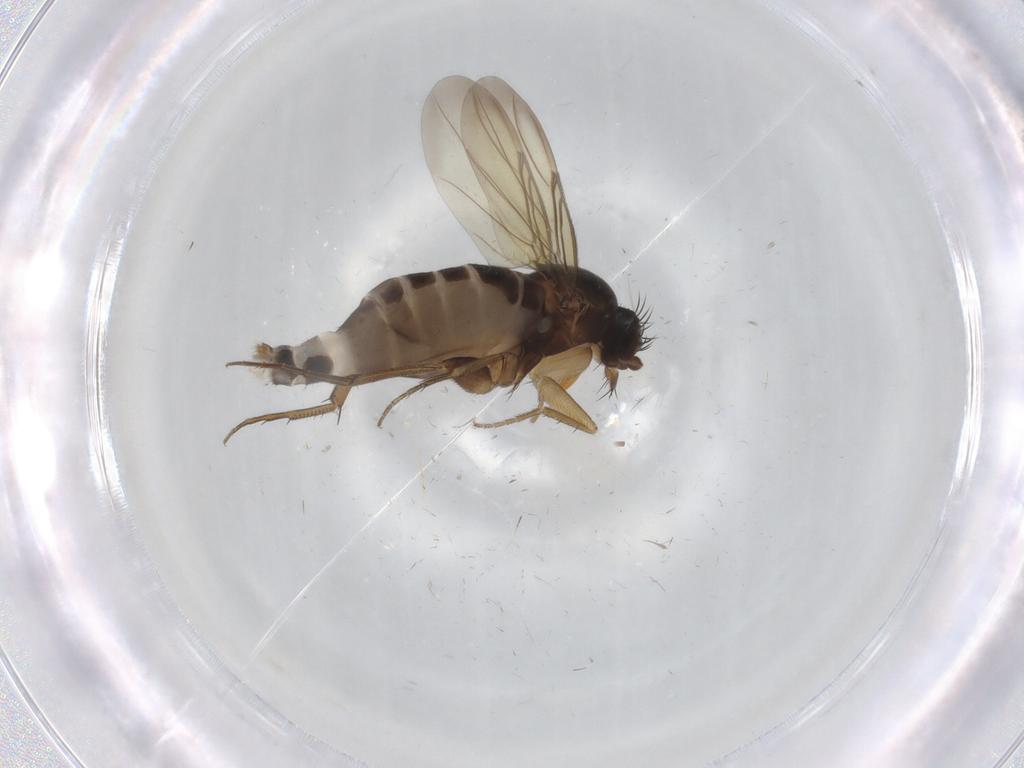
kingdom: Animalia
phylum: Arthropoda
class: Insecta
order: Diptera
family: Phoridae
